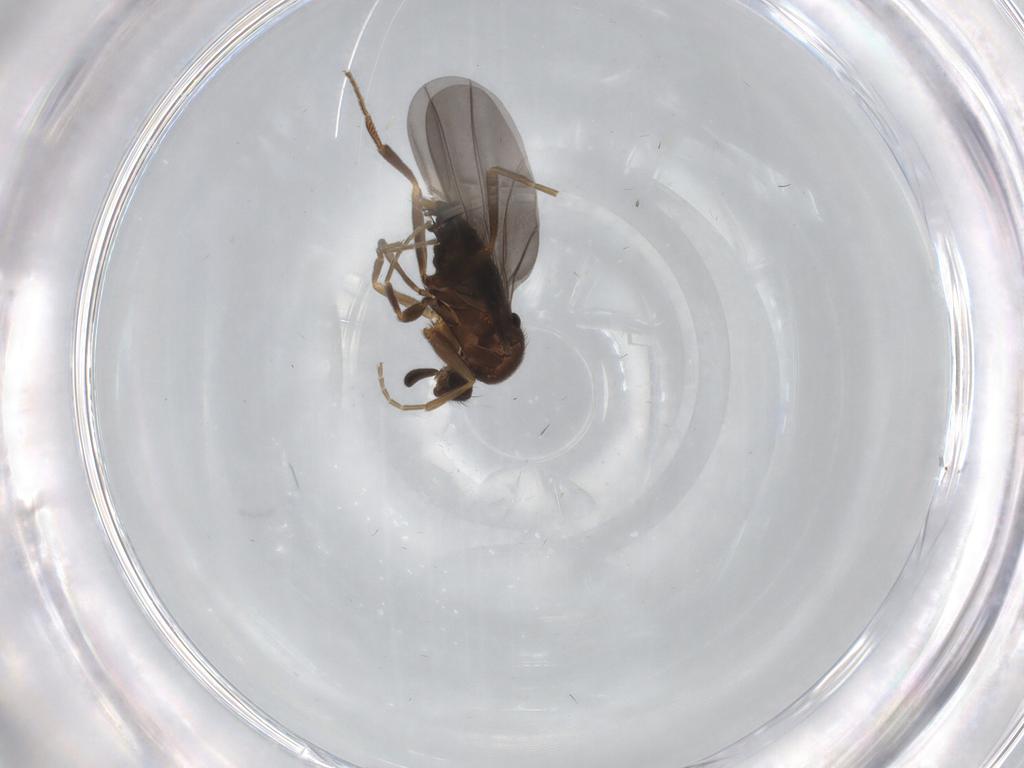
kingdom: Animalia
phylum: Arthropoda
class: Insecta
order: Diptera
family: Phoridae
